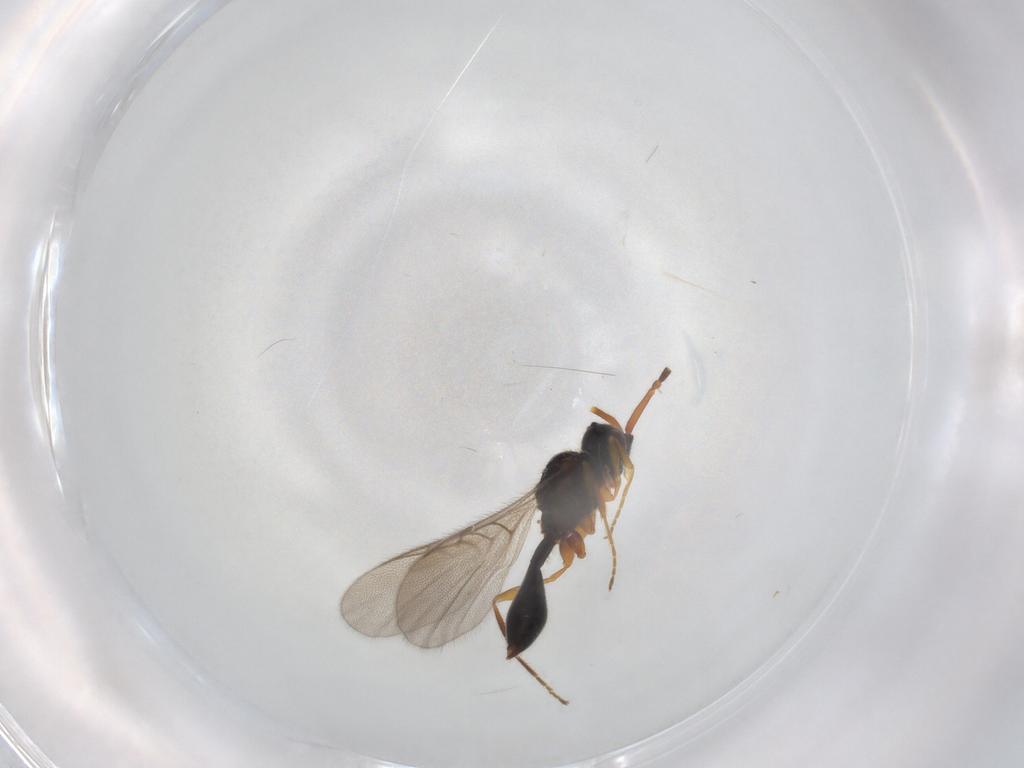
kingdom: Animalia
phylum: Arthropoda
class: Insecta
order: Hymenoptera
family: Diapriidae
